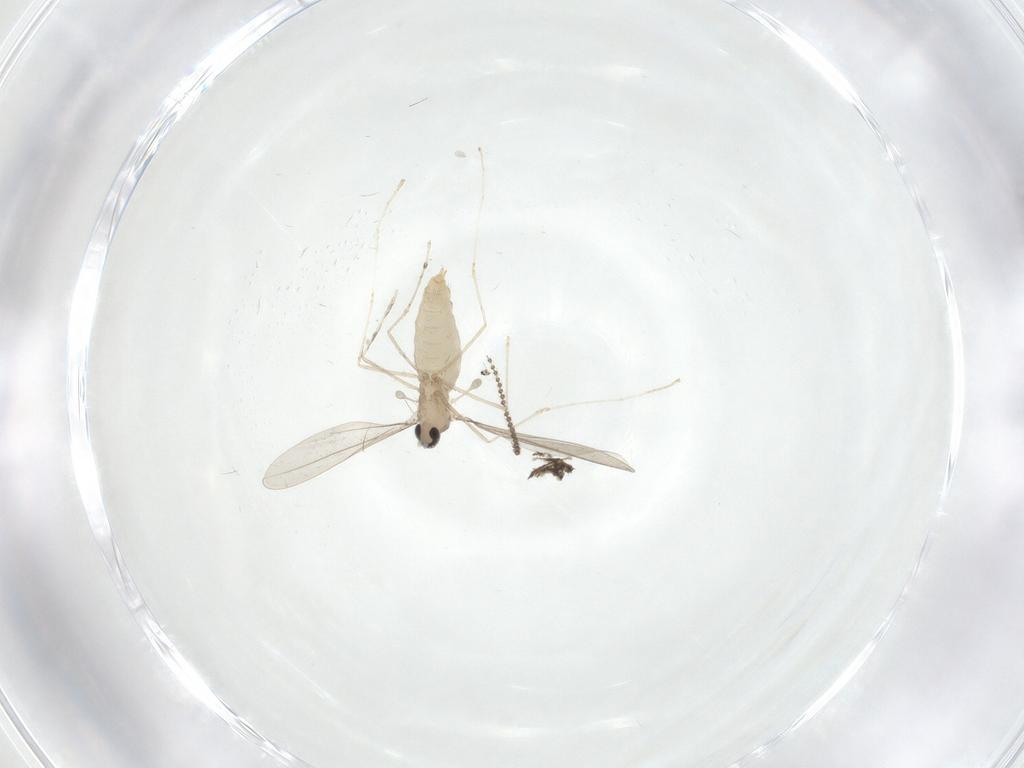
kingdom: Animalia
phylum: Arthropoda
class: Insecta
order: Diptera
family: Cecidomyiidae
